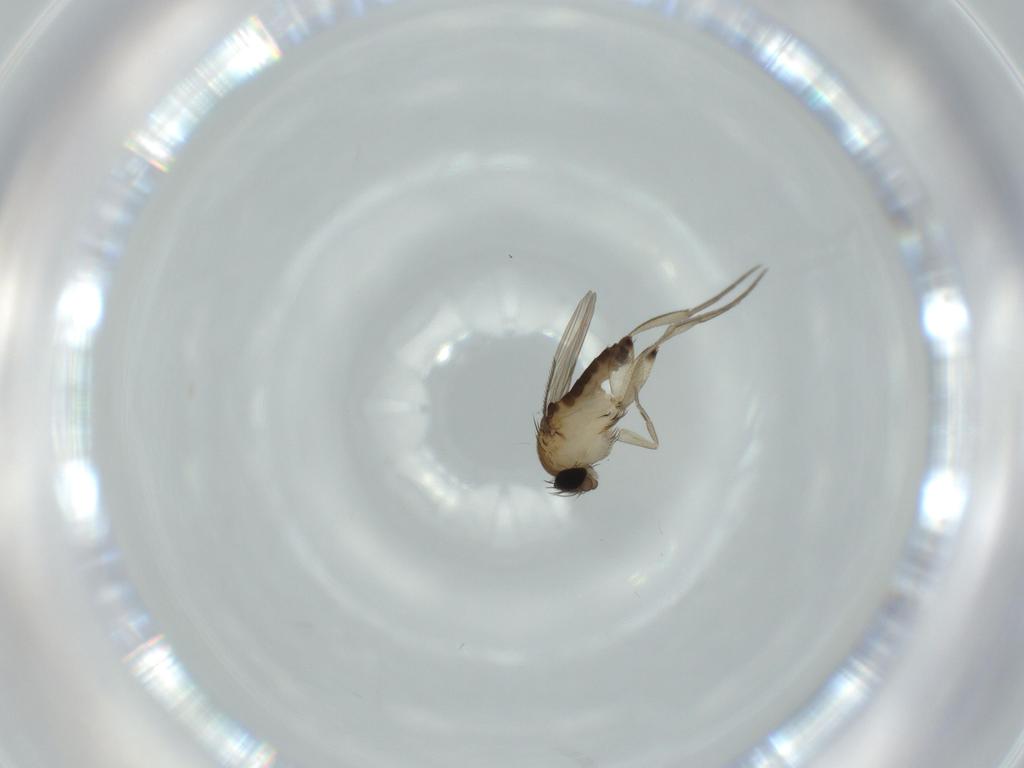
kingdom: Animalia
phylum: Arthropoda
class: Insecta
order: Diptera
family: Phoridae
